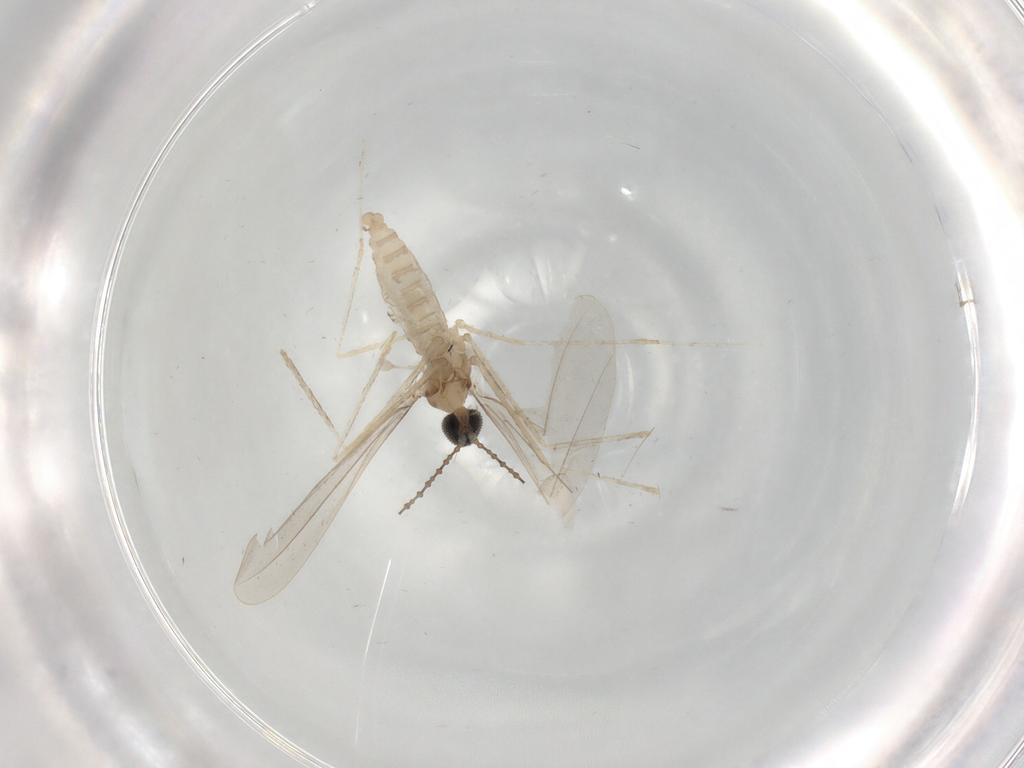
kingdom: Animalia
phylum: Arthropoda
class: Insecta
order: Diptera
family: Cecidomyiidae
